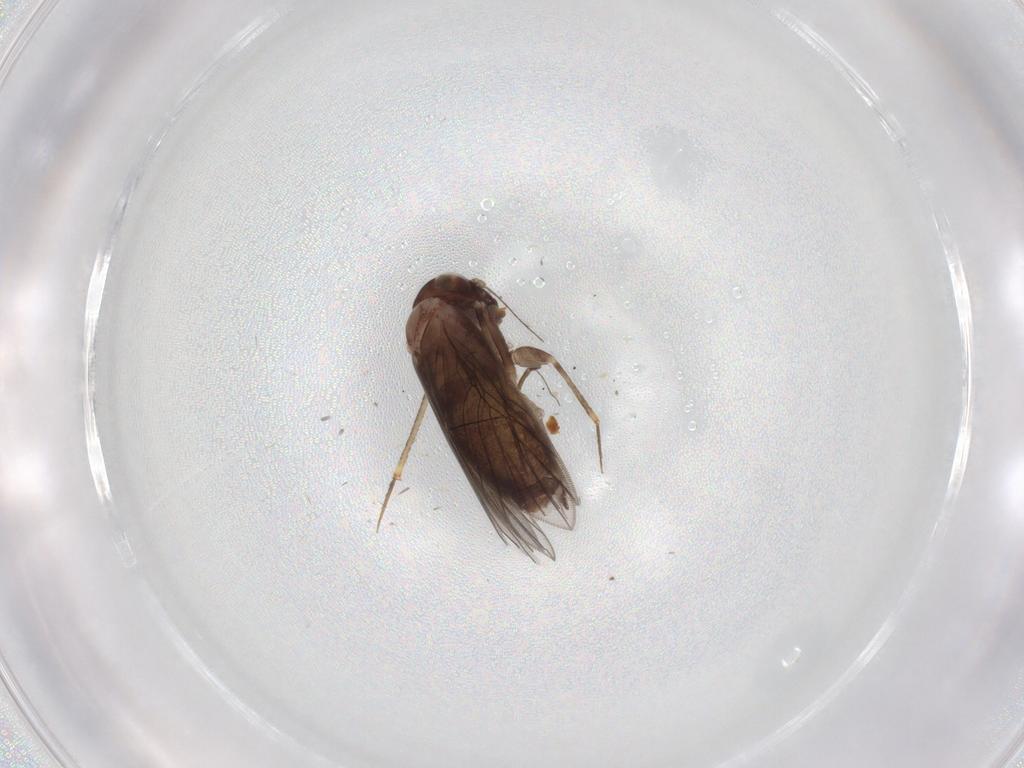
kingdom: Animalia
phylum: Arthropoda
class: Insecta
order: Psocodea
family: Lepidopsocidae
